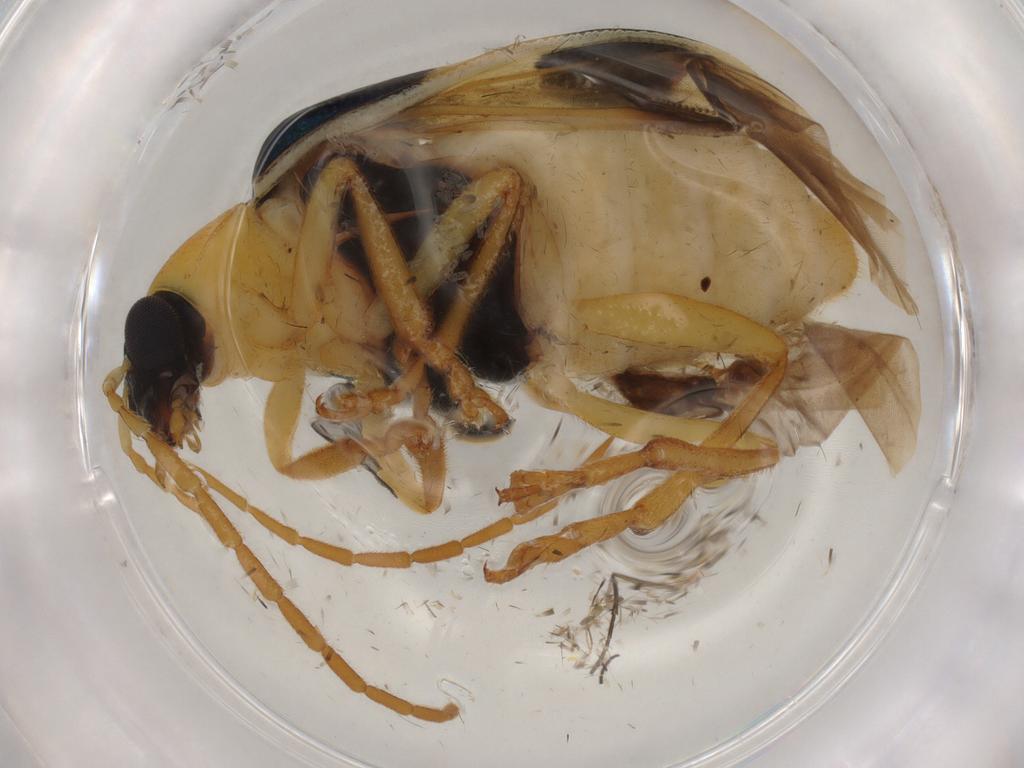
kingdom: Animalia
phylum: Arthropoda
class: Insecta
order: Coleoptera
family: Chrysomelidae
